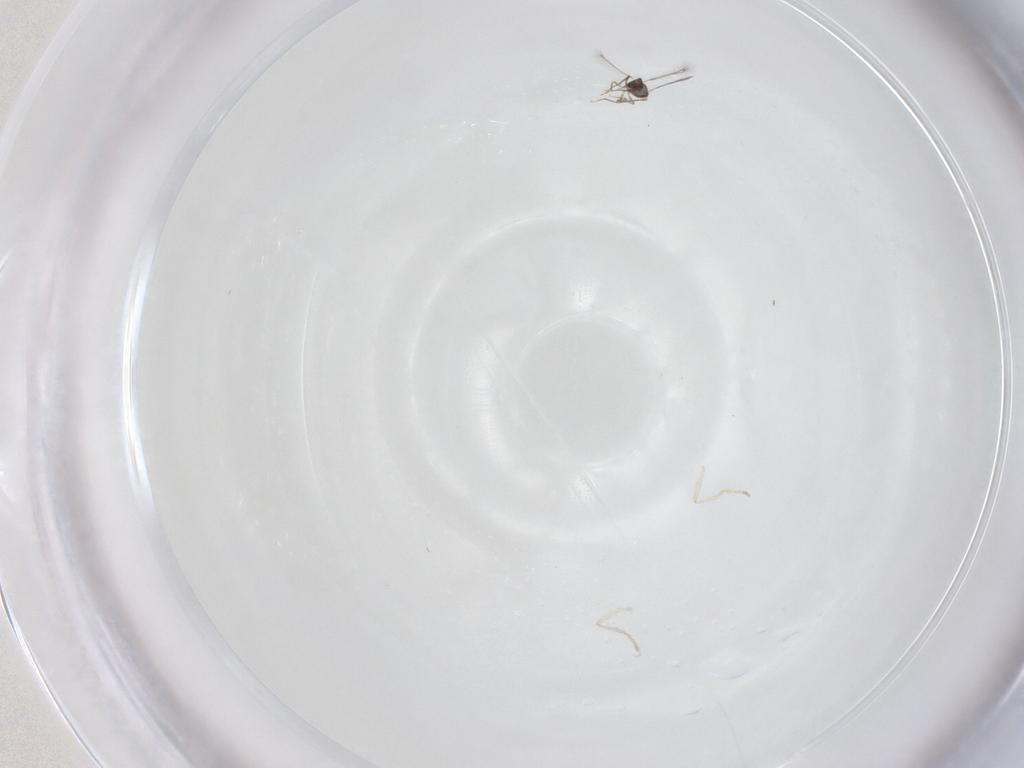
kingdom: Animalia
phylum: Arthropoda
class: Insecta
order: Diptera
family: Cecidomyiidae
